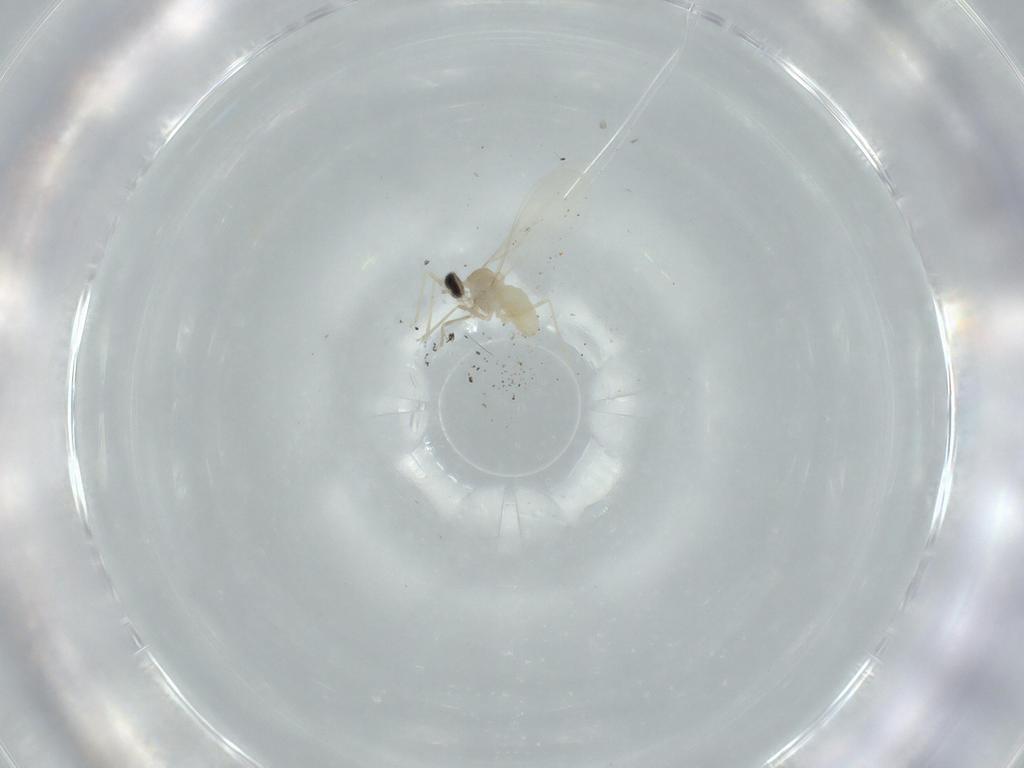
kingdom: Animalia
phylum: Arthropoda
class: Insecta
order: Diptera
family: Cecidomyiidae
